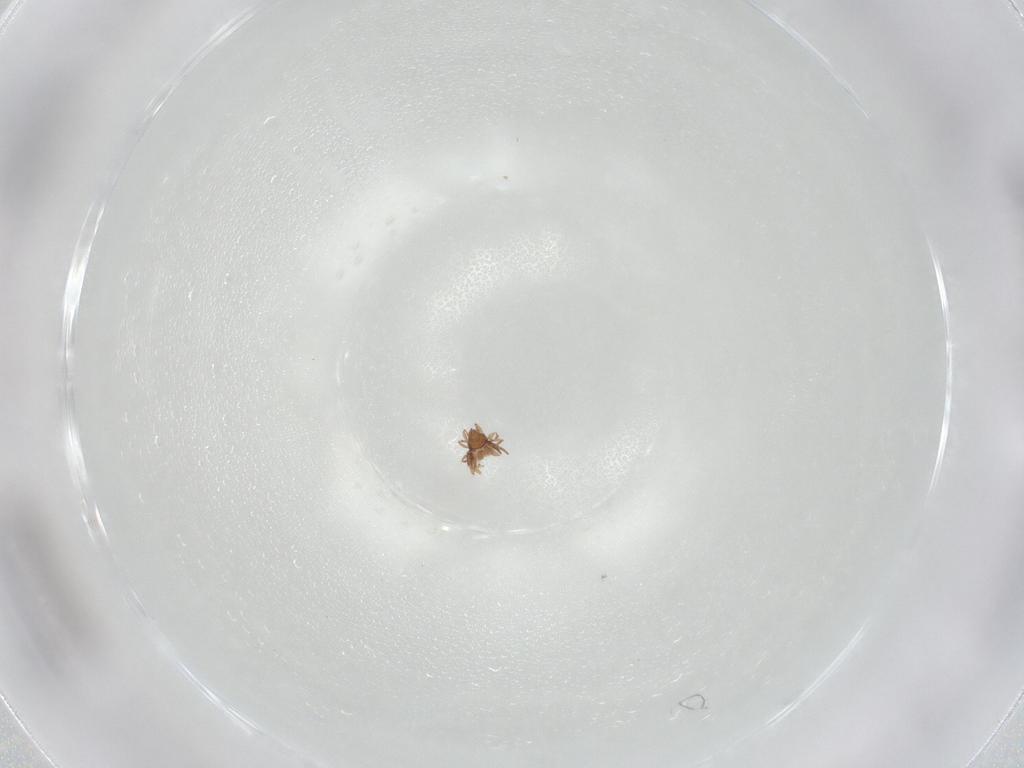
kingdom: Animalia
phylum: Arthropoda
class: Arachnida
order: Sarcoptiformes
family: Oribatulidae
